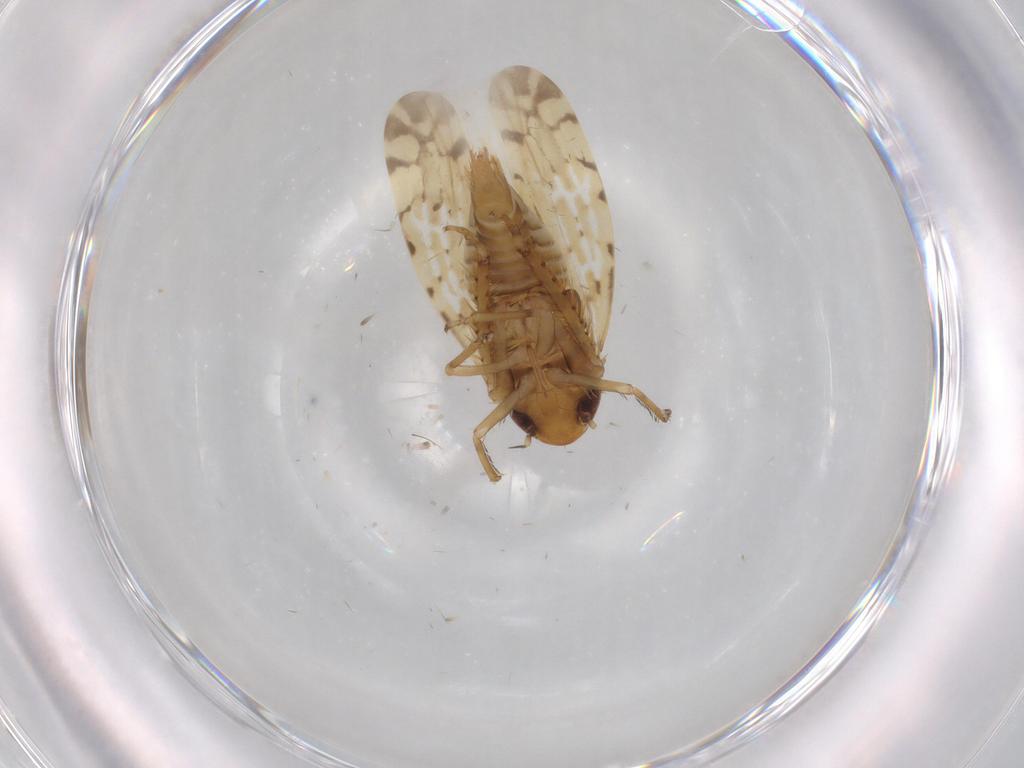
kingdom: Animalia
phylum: Arthropoda
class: Insecta
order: Hemiptera
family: Cicadellidae
